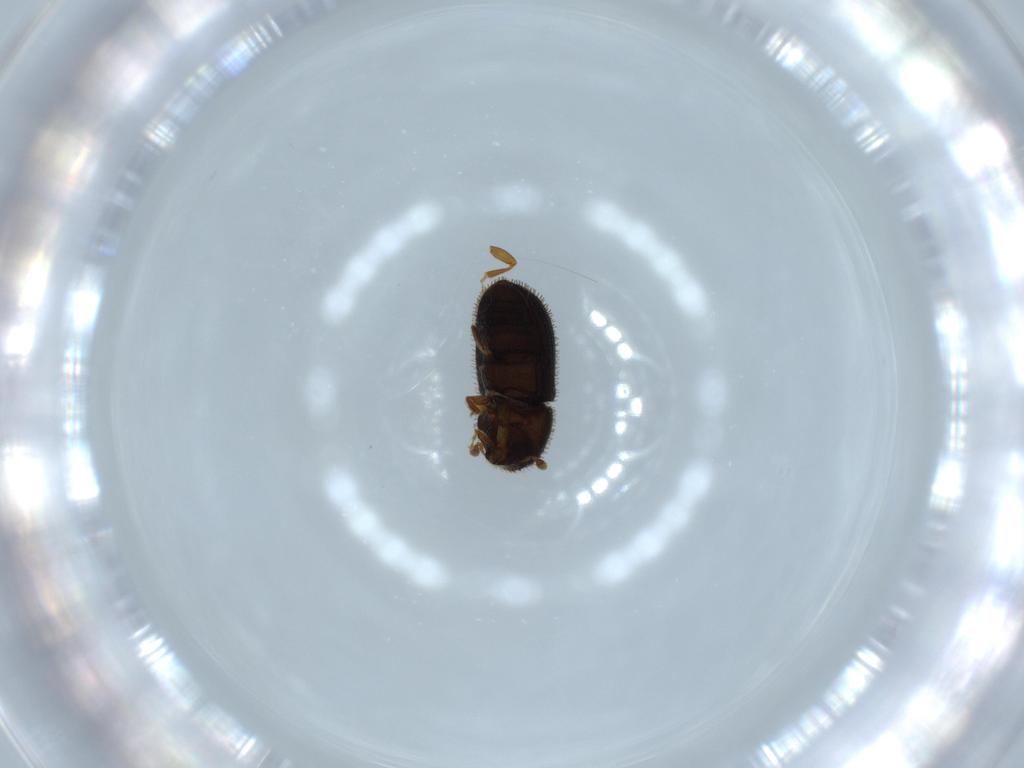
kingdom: Animalia
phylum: Arthropoda
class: Insecta
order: Coleoptera
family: Curculionidae
